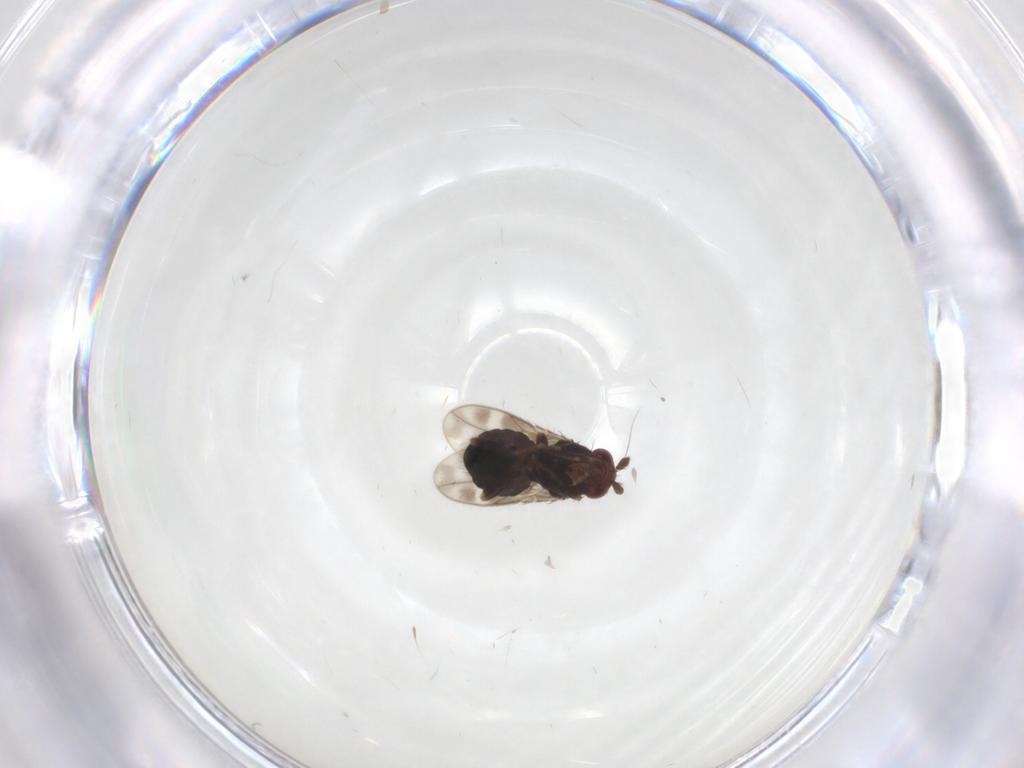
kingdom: Animalia
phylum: Arthropoda
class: Insecta
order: Diptera
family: Sphaeroceridae
